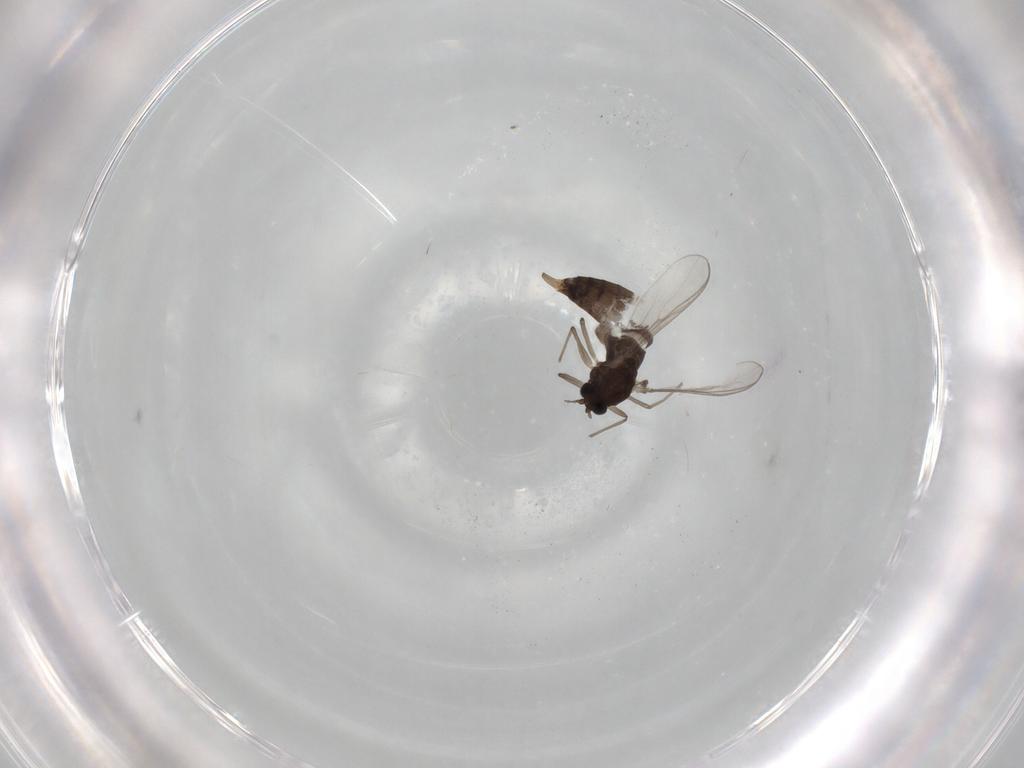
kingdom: Animalia
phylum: Arthropoda
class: Insecta
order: Diptera
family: Chironomidae
